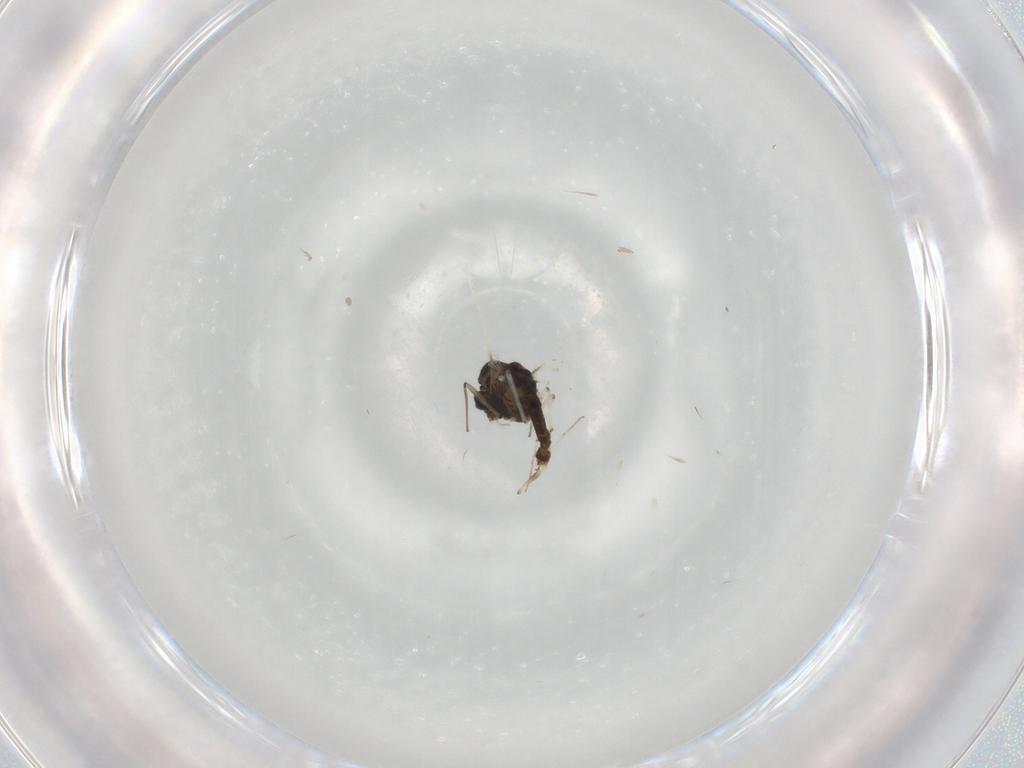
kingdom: Animalia
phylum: Arthropoda
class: Insecta
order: Diptera
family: Chironomidae
